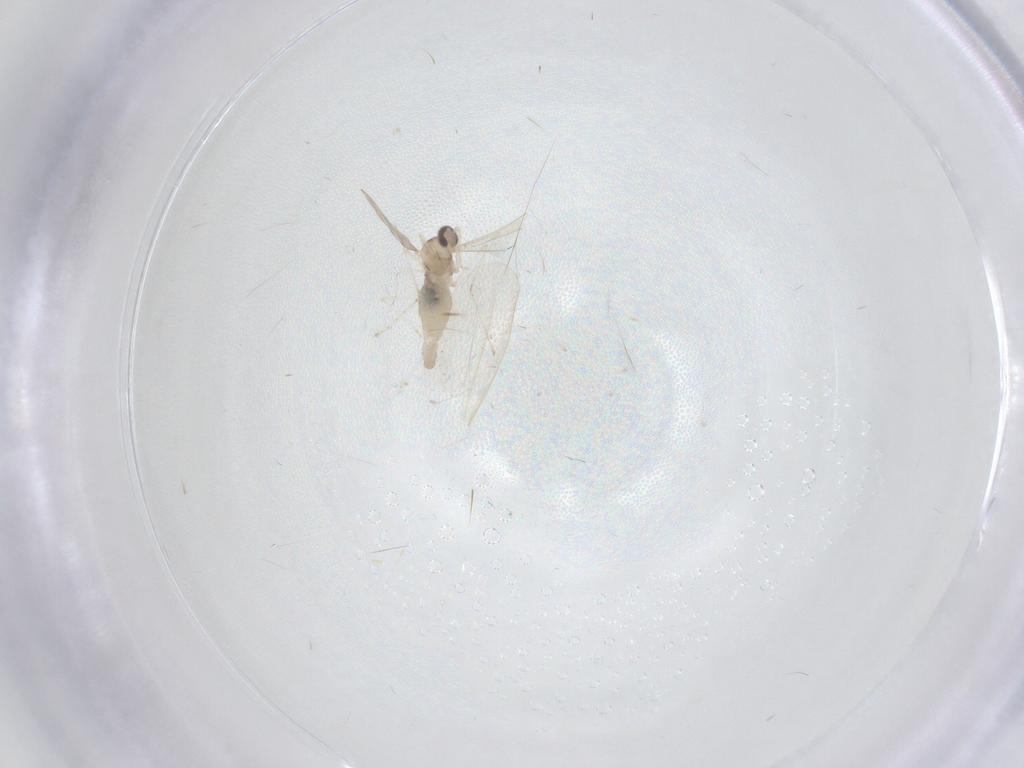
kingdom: Animalia
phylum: Arthropoda
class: Insecta
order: Diptera
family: Cecidomyiidae
